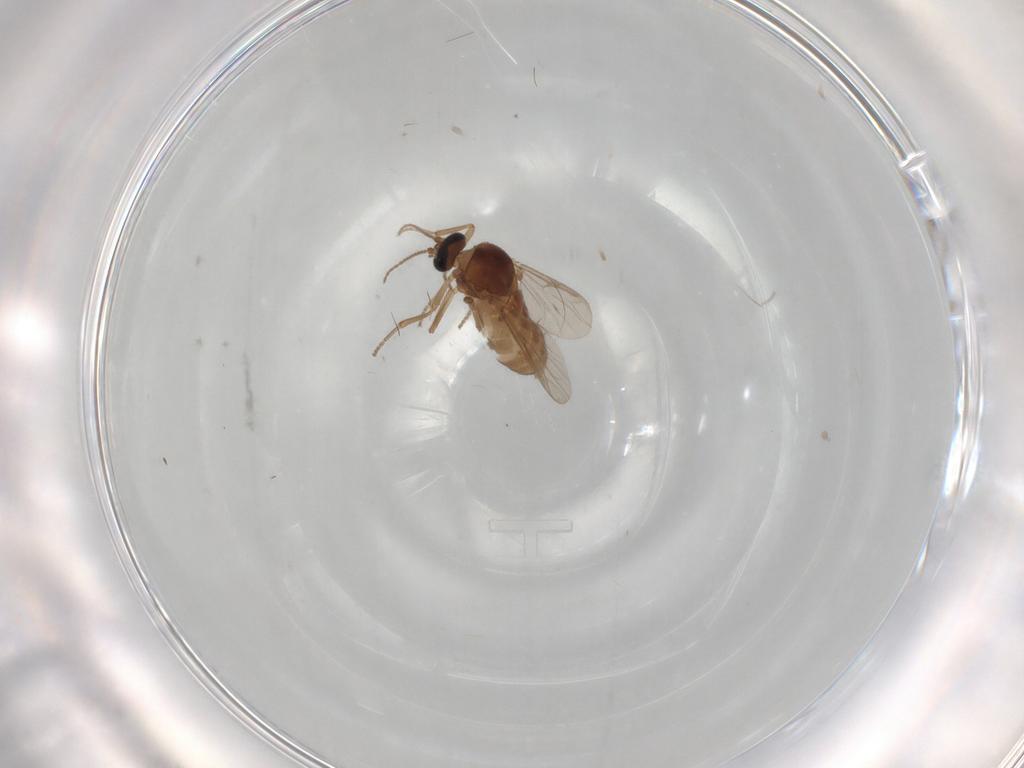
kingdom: Animalia
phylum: Arthropoda
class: Insecta
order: Diptera
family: Ceratopogonidae
